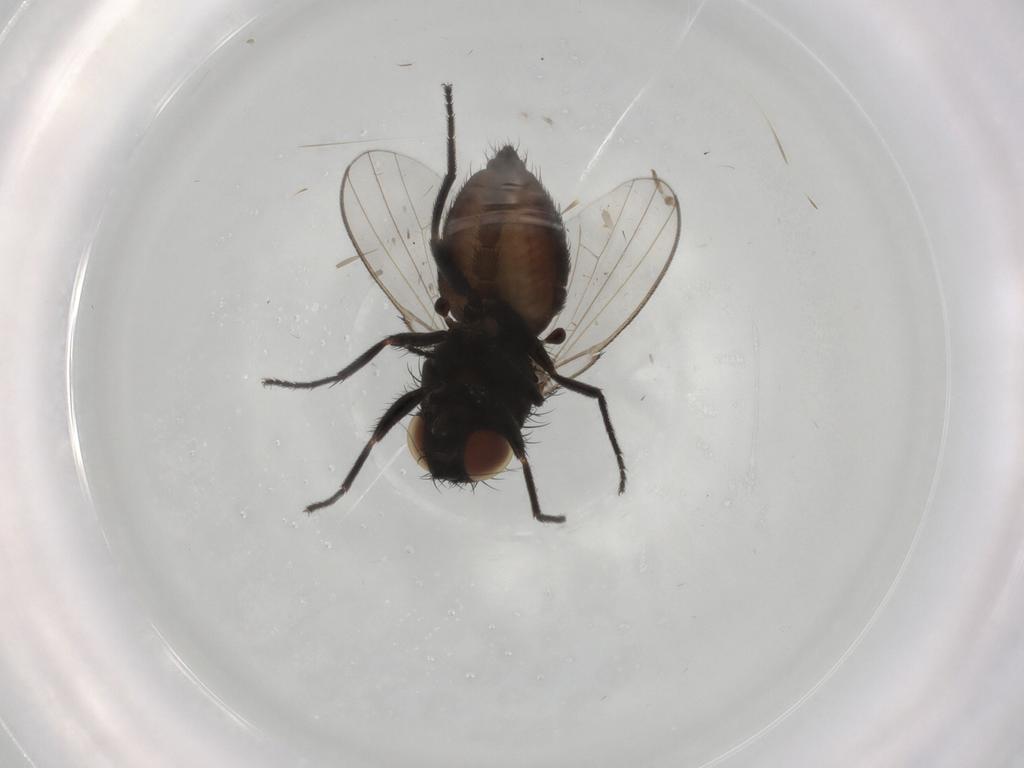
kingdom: Animalia
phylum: Arthropoda
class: Insecta
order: Diptera
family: Milichiidae
